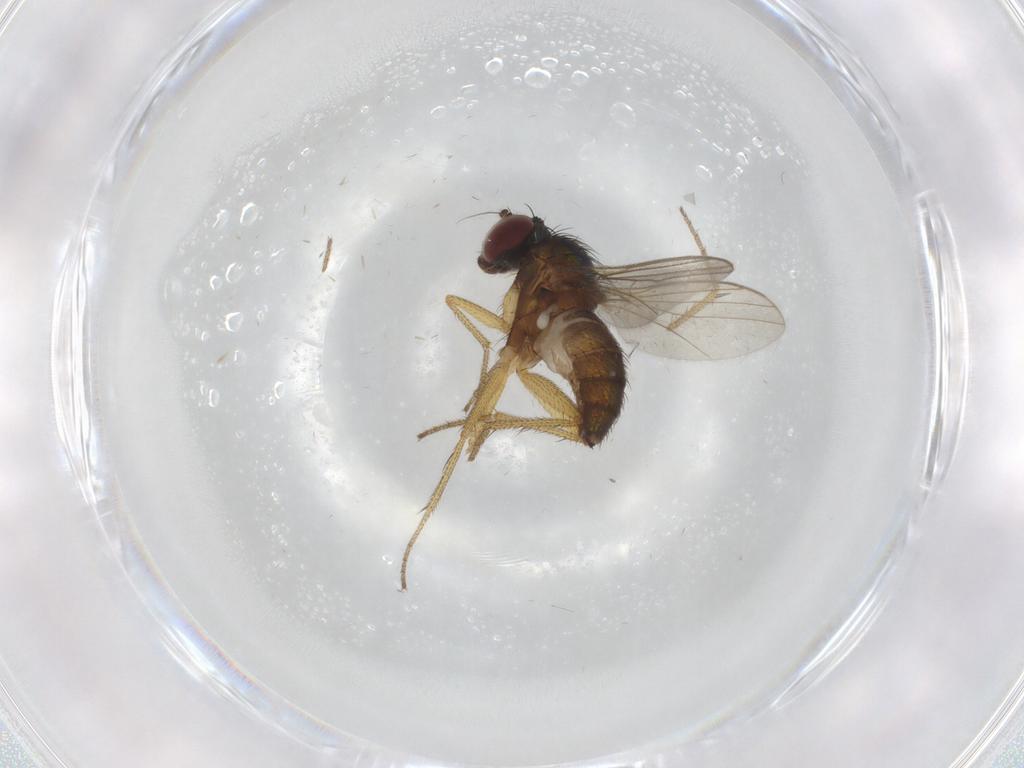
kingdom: Animalia
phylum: Arthropoda
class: Insecta
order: Diptera
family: Dolichopodidae
